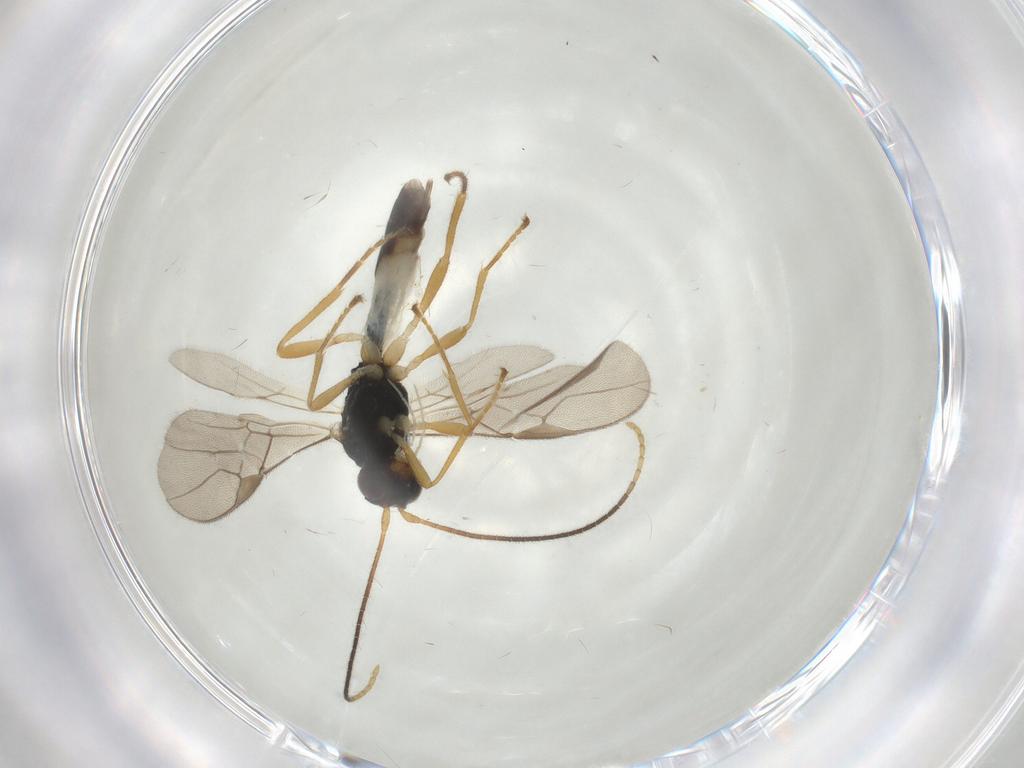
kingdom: Animalia
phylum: Arthropoda
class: Insecta
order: Hymenoptera
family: Braconidae
